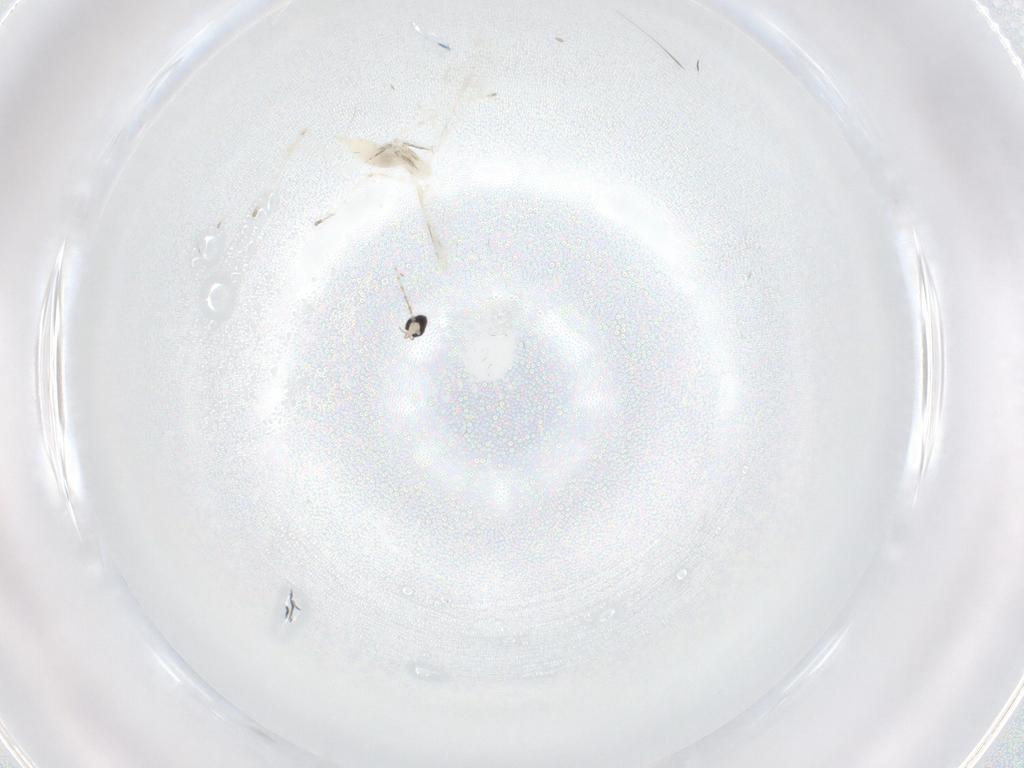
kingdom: Animalia
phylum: Arthropoda
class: Insecta
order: Diptera
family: Cecidomyiidae
